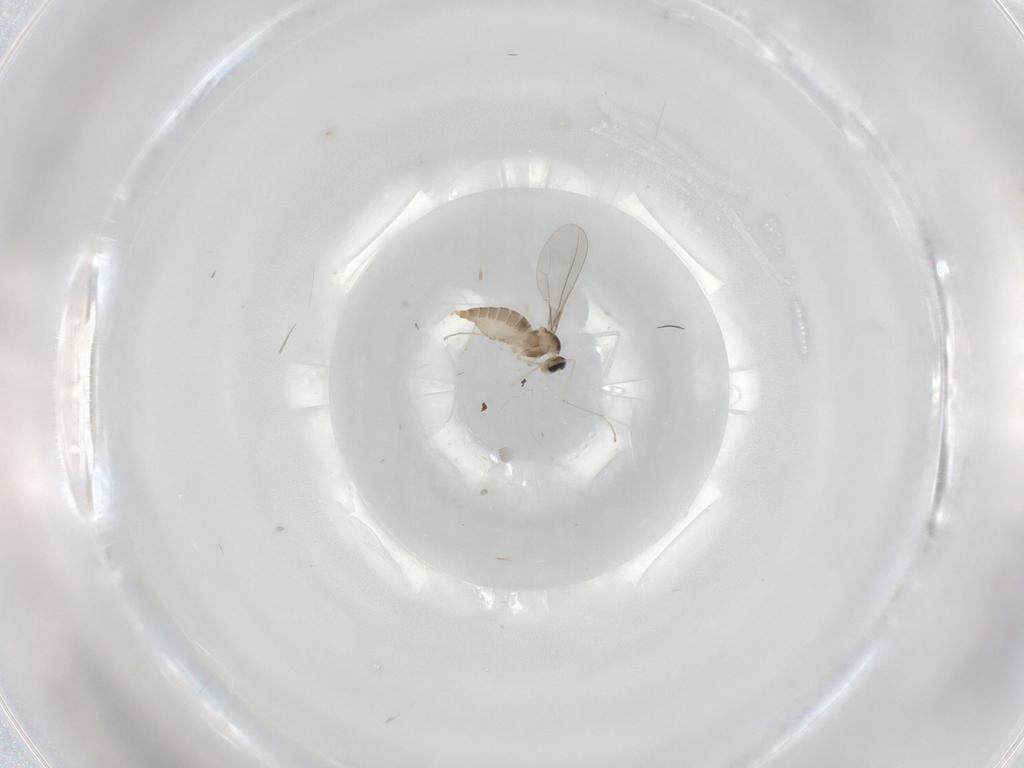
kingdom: Animalia
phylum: Arthropoda
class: Insecta
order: Diptera
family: Cecidomyiidae
